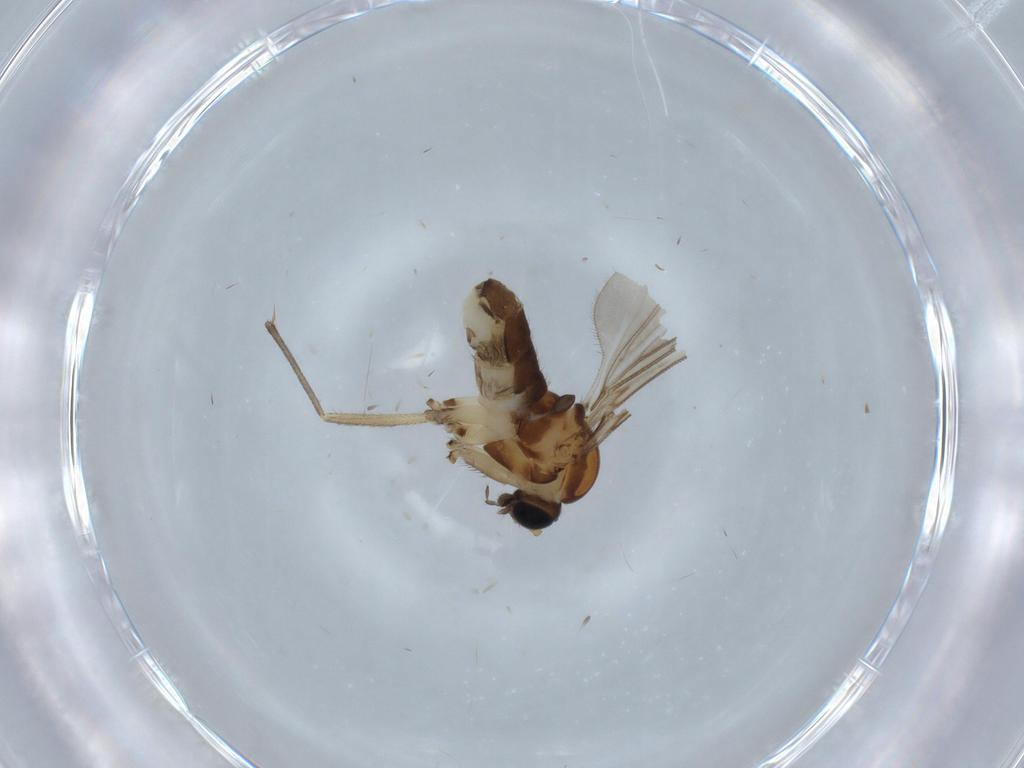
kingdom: Animalia
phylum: Arthropoda
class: Insecta
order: Diptera
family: Sciaridae
